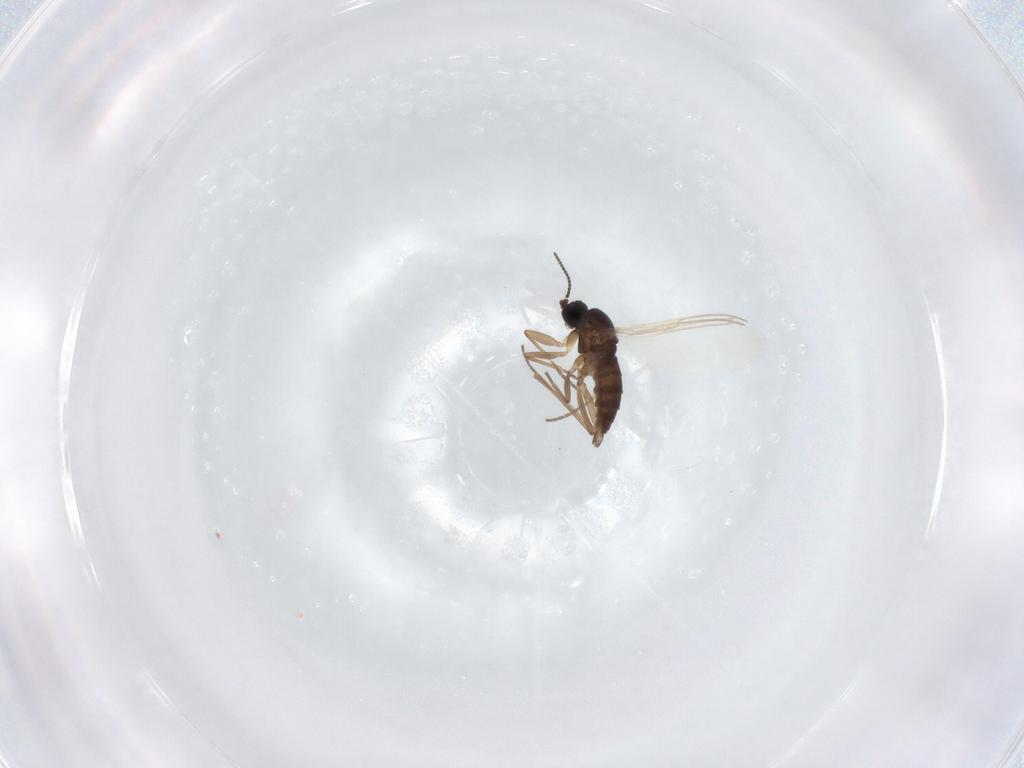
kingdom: Animalia
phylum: Arthropoda
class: Insecta
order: Diptera
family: Sciaridae
